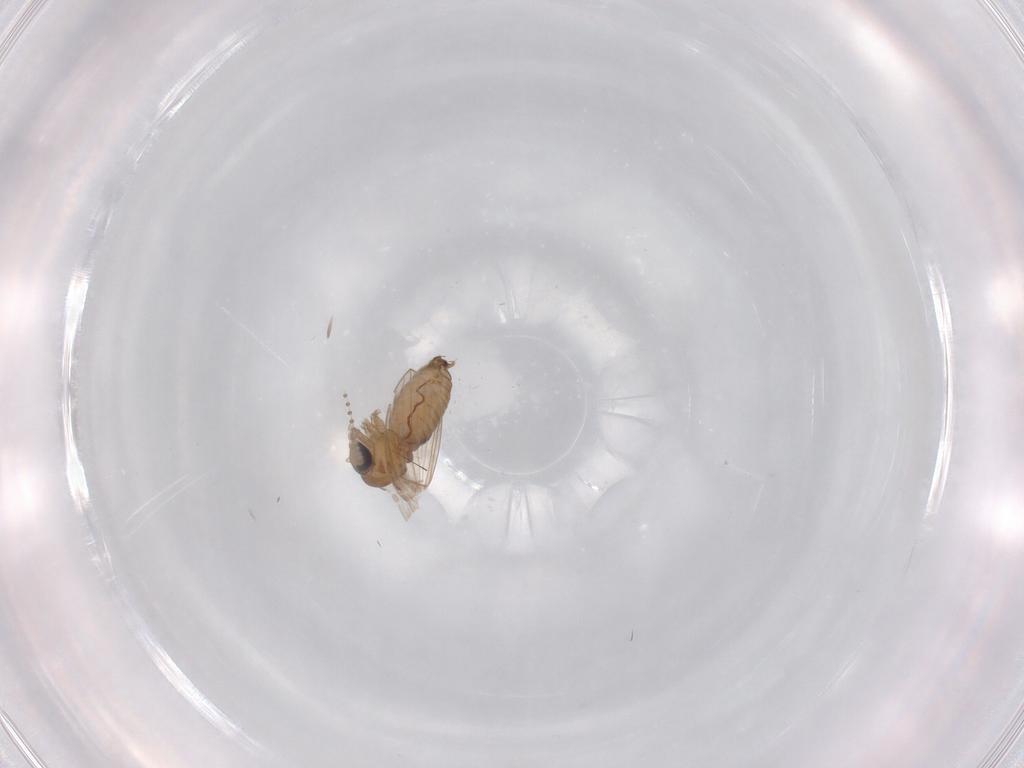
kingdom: Animalia
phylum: Arthropoda
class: Insecta
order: Diptera
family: Psychodidae
